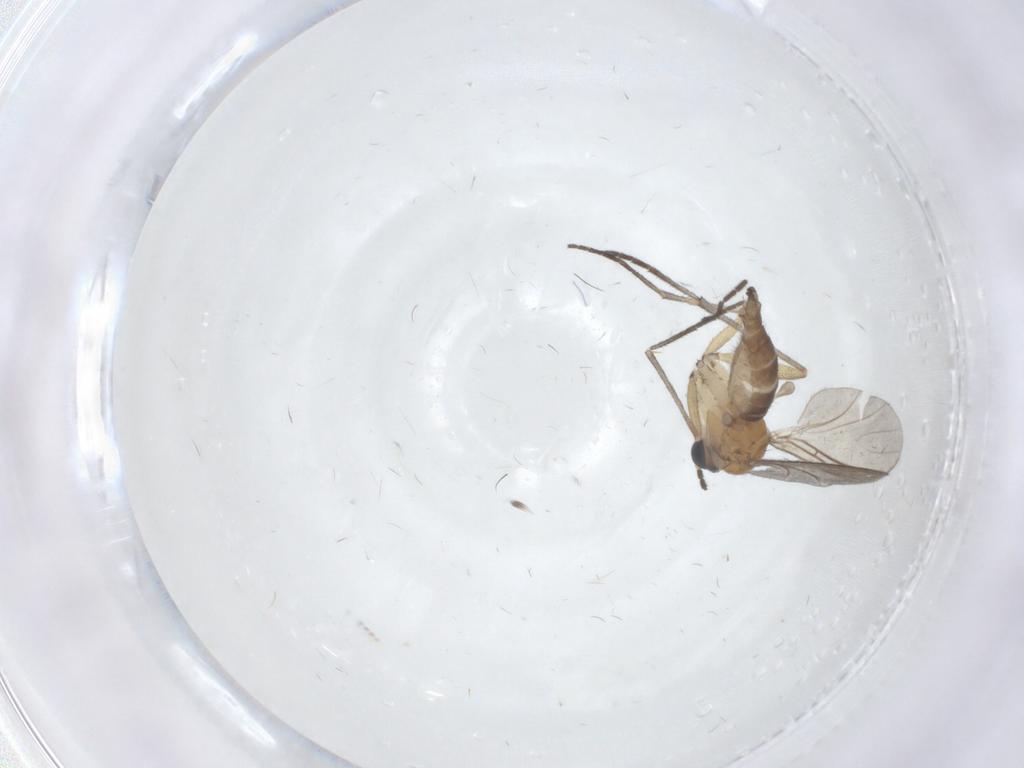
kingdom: Animalia
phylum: Arthropoda
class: Insecta
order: Diptera
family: Sciaridae
